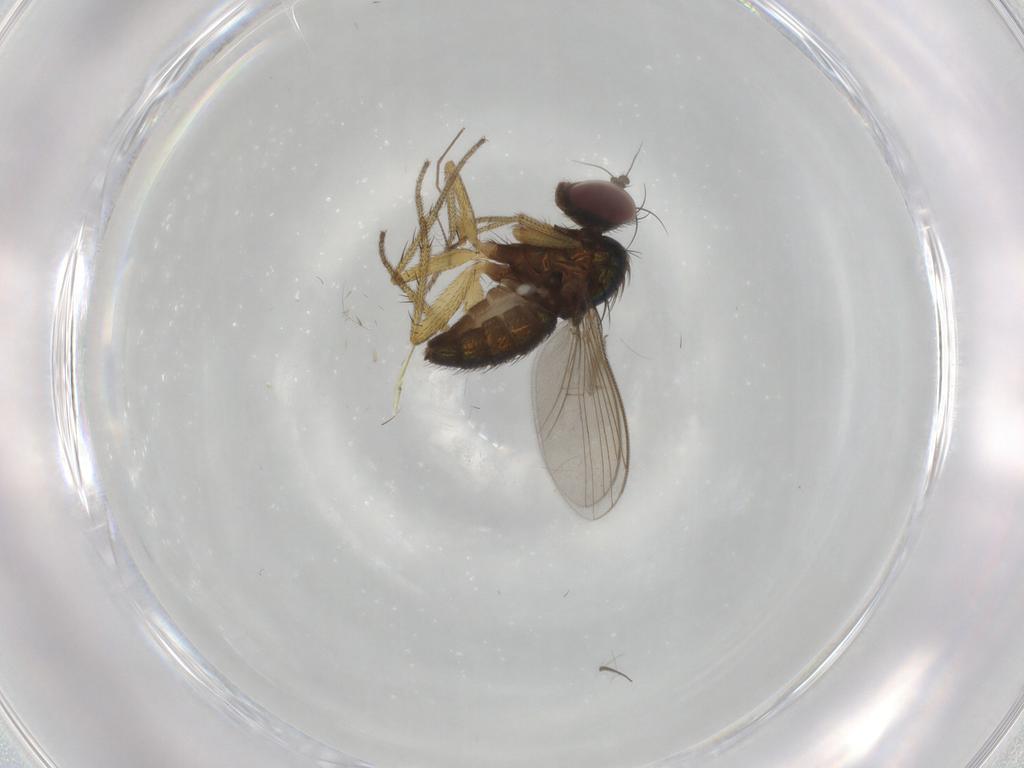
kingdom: Animalia
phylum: Arthropoda
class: Insecta
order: Diptera
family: Dolichopodidae
